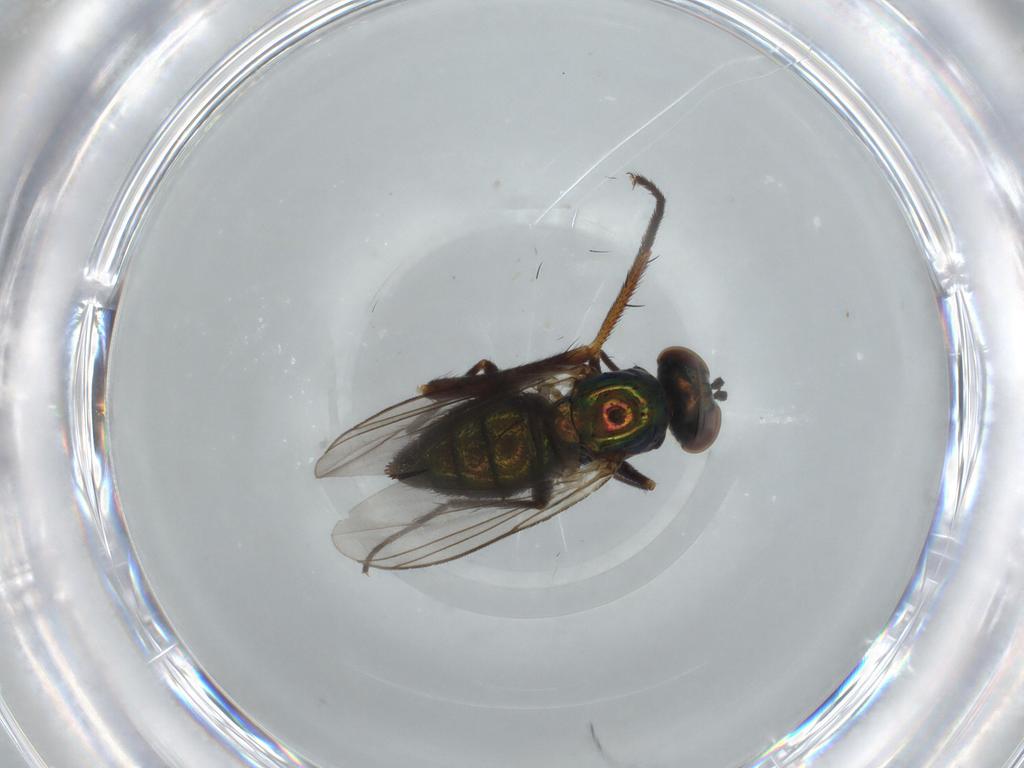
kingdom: Animalia
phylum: Arthropoda
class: Insecta
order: Diptera
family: Dolichopodidae
